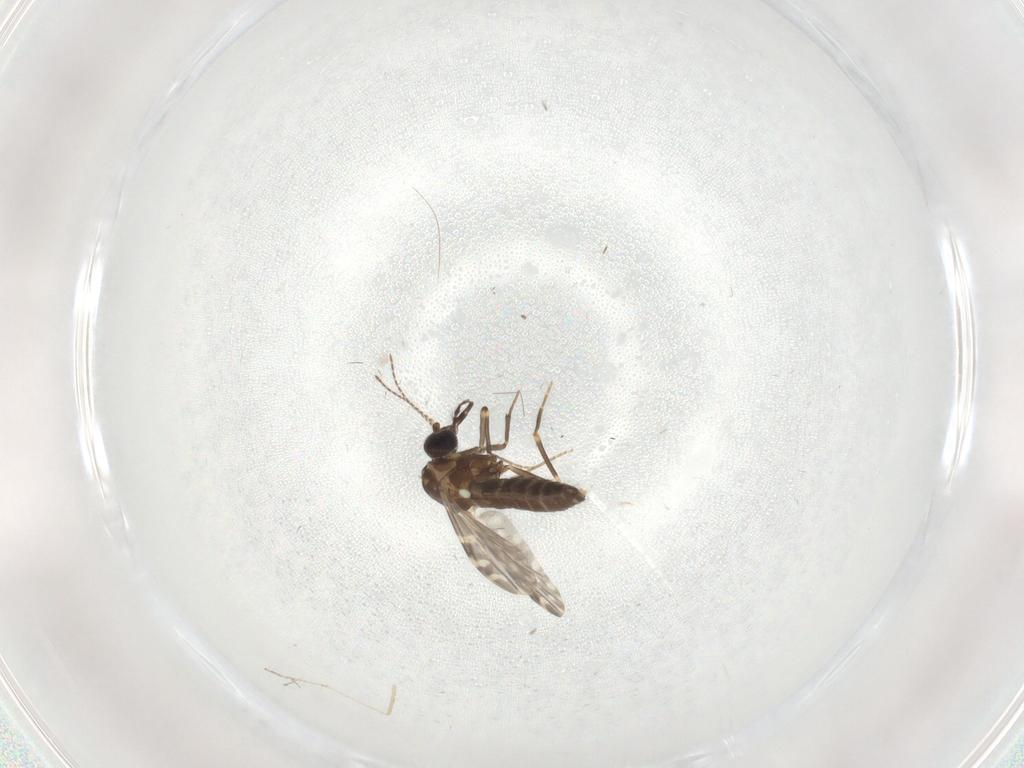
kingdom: Animalia
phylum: Arthropoda
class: Insecta
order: Diptera
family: Ceratopogonidae
